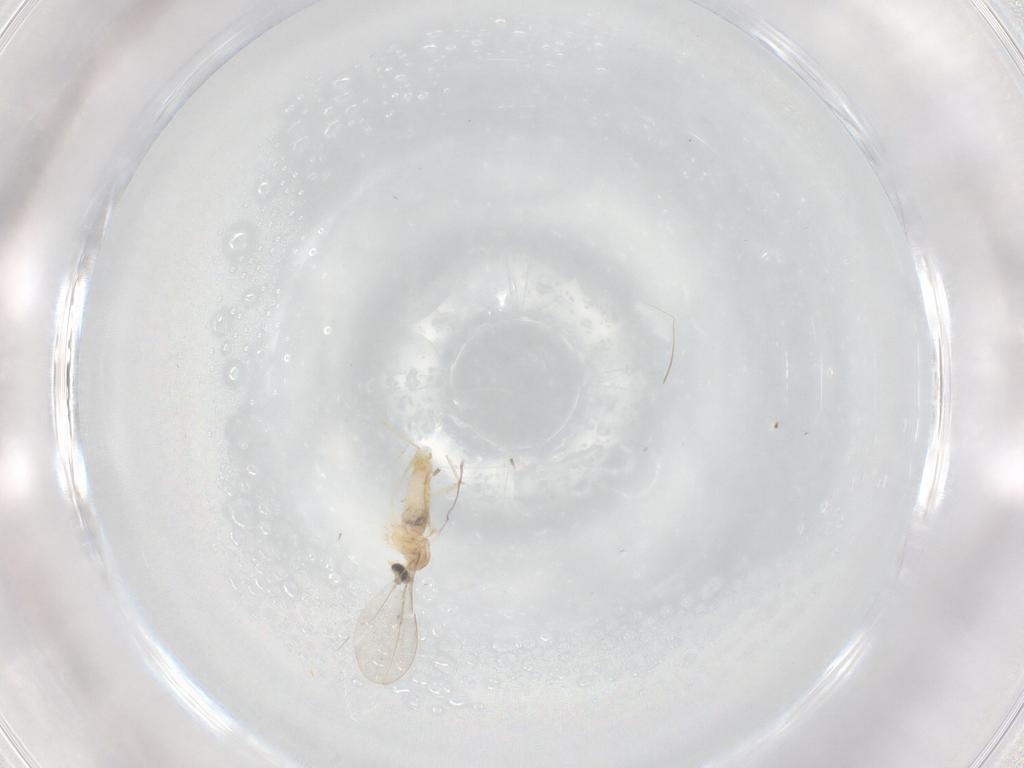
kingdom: Animalia
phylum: Arthropoda
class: Insecta
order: Diptera
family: Cecidomyiidae
